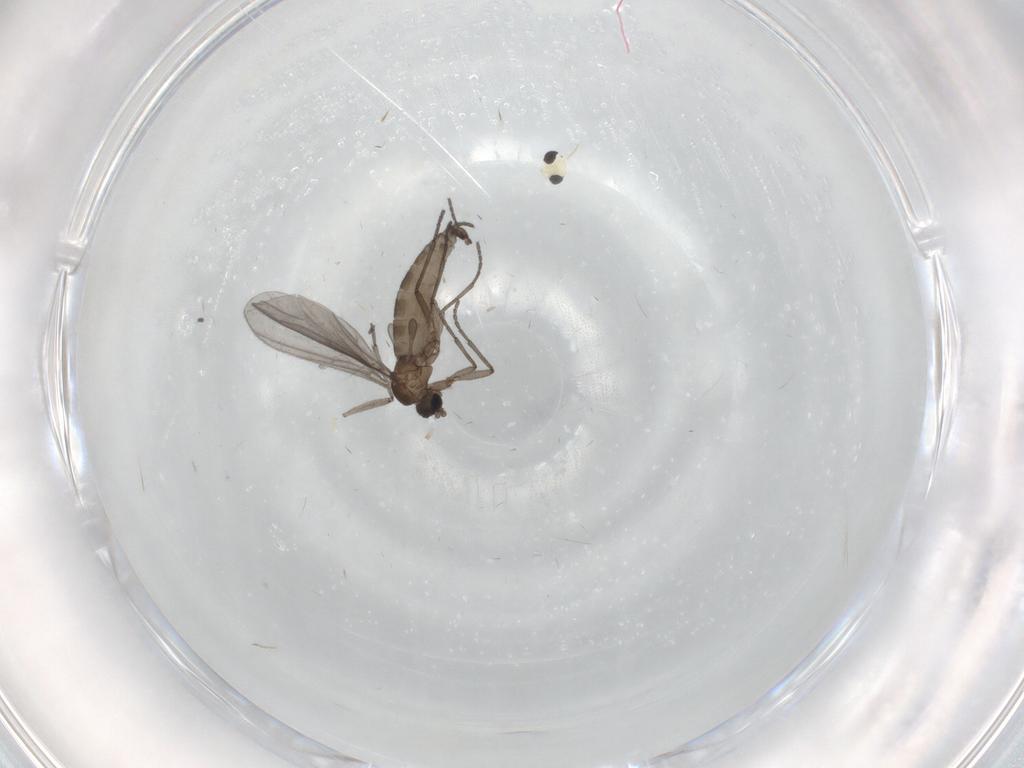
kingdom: Animalia
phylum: Arthropoda
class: Insecta
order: Diptera
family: Sciaridae
